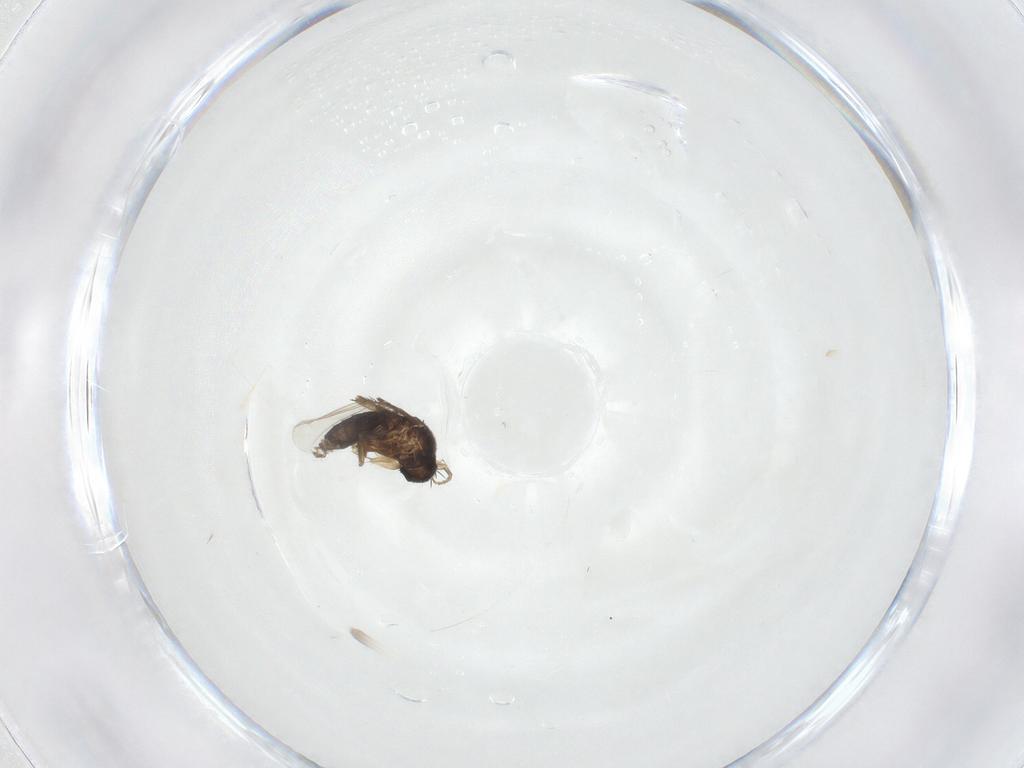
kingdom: Animalia
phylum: Arthropoda
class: Insecta
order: Diptera
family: Phoridae
